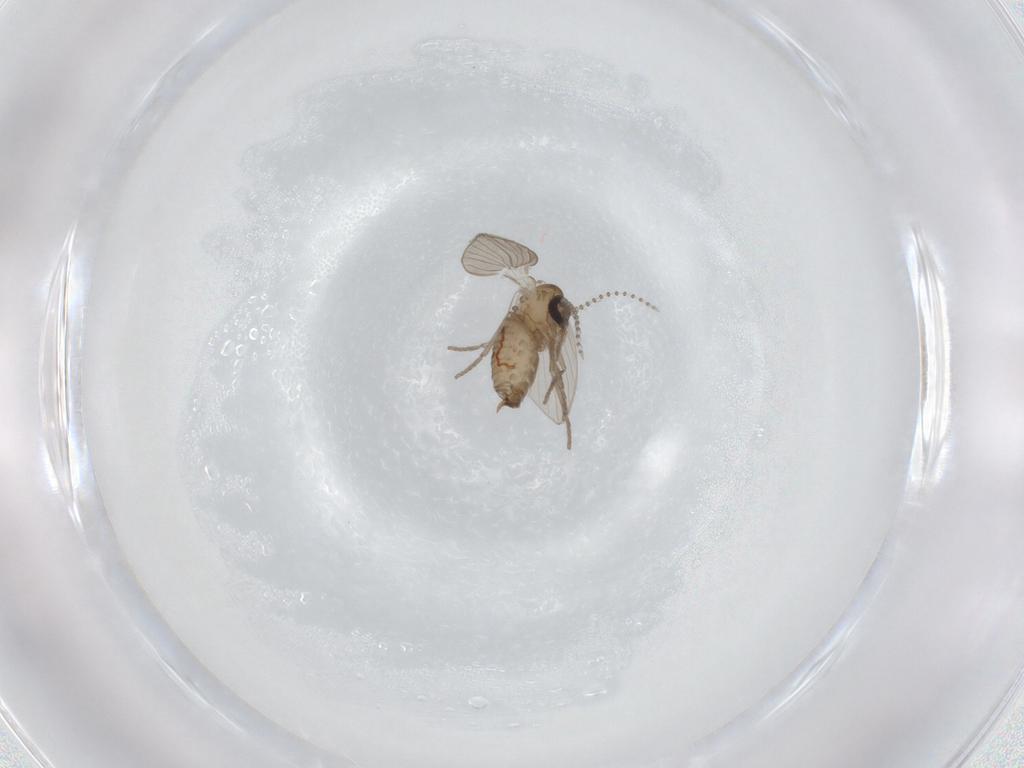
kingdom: Animalia
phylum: Arthropoda
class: Insecta
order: Diptera
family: Psychodidae
